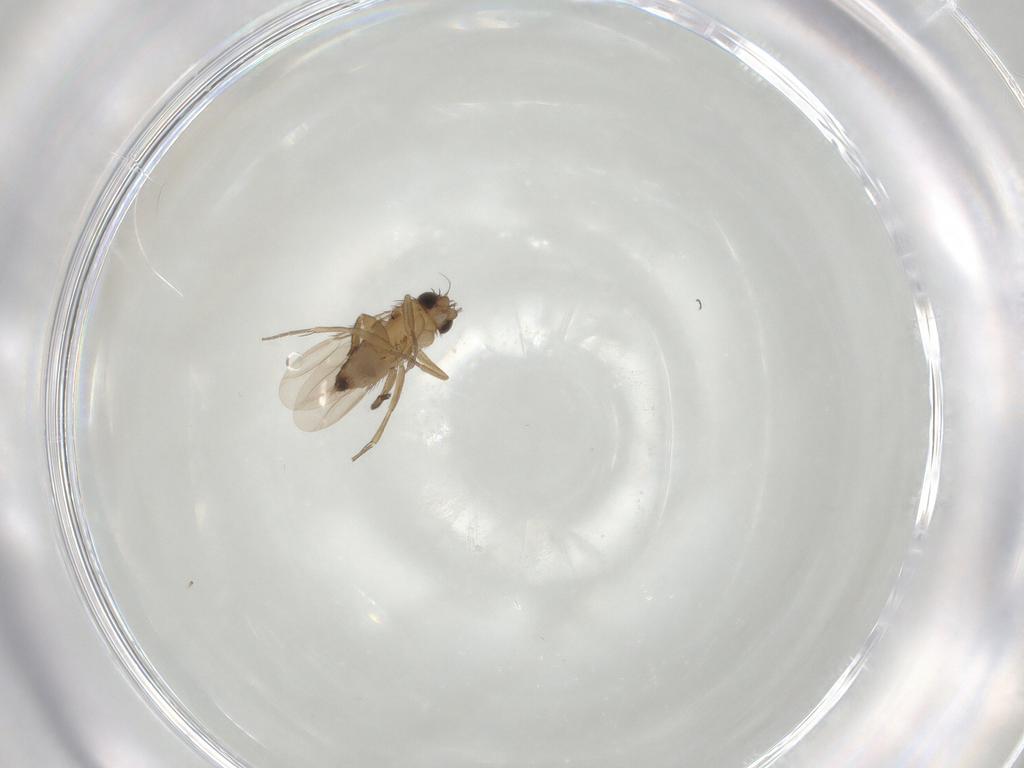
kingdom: Animalia
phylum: Arthropoda
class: Insecta
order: Diptera
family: Phoridae
